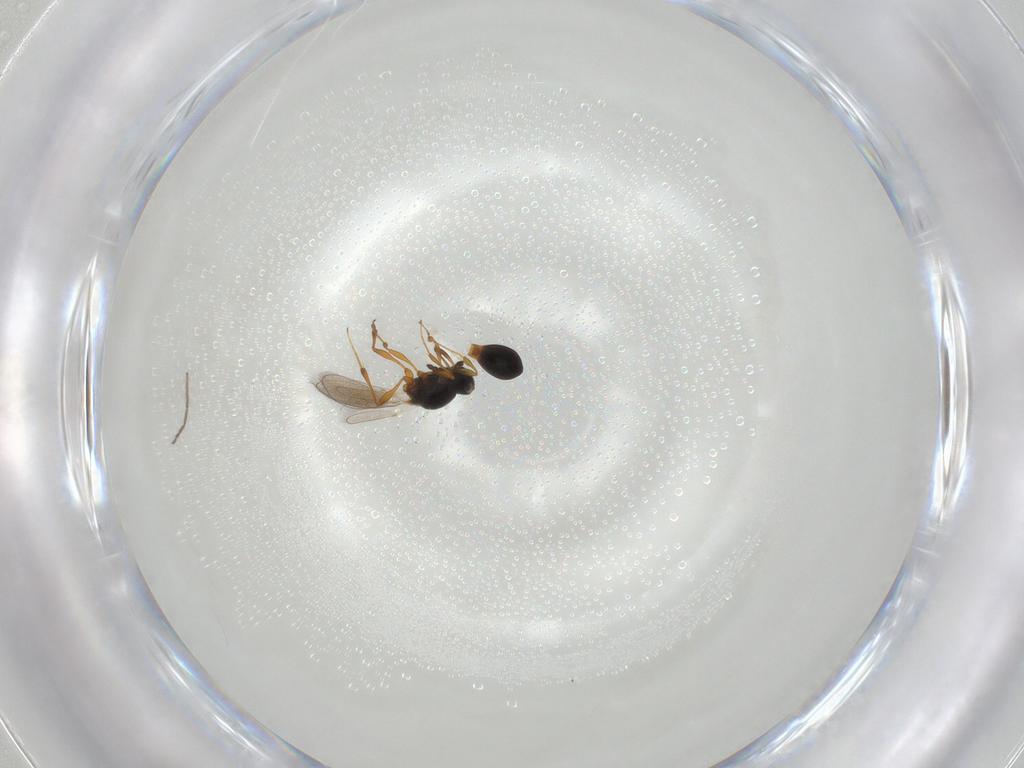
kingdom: Animalia
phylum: Arthropoda
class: Insecta
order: Hymenoptera
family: Platygastridae
